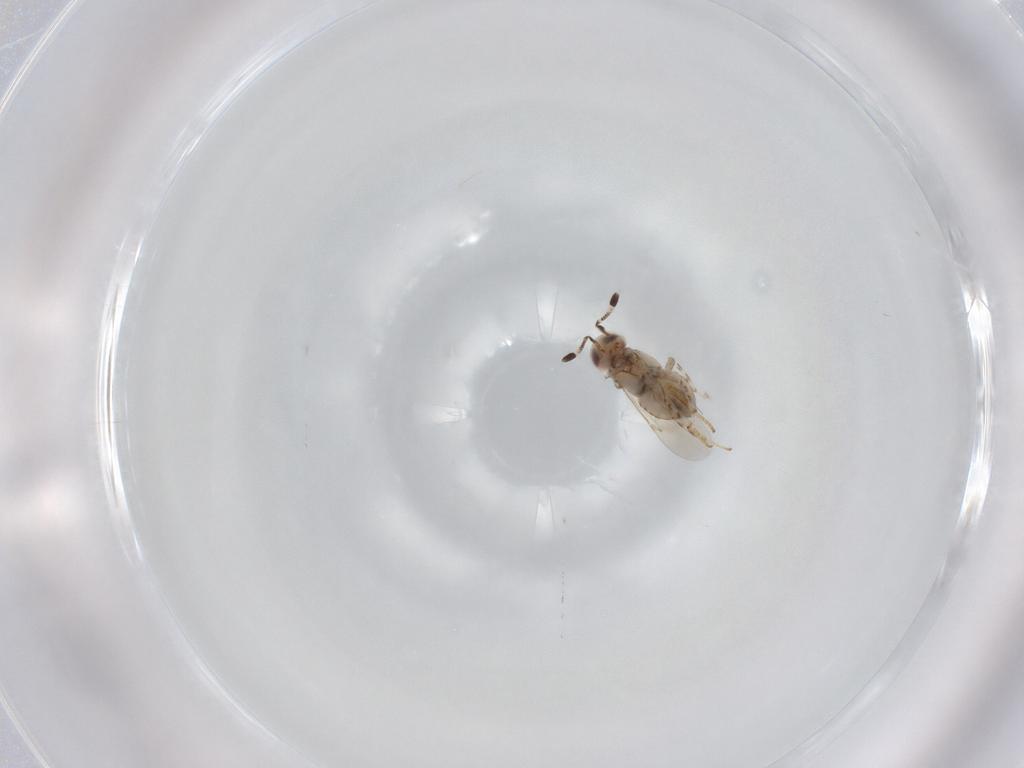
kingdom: Animalia
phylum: Arthropoda
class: Insecta
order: Hymenoptera
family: Encyrtidae
